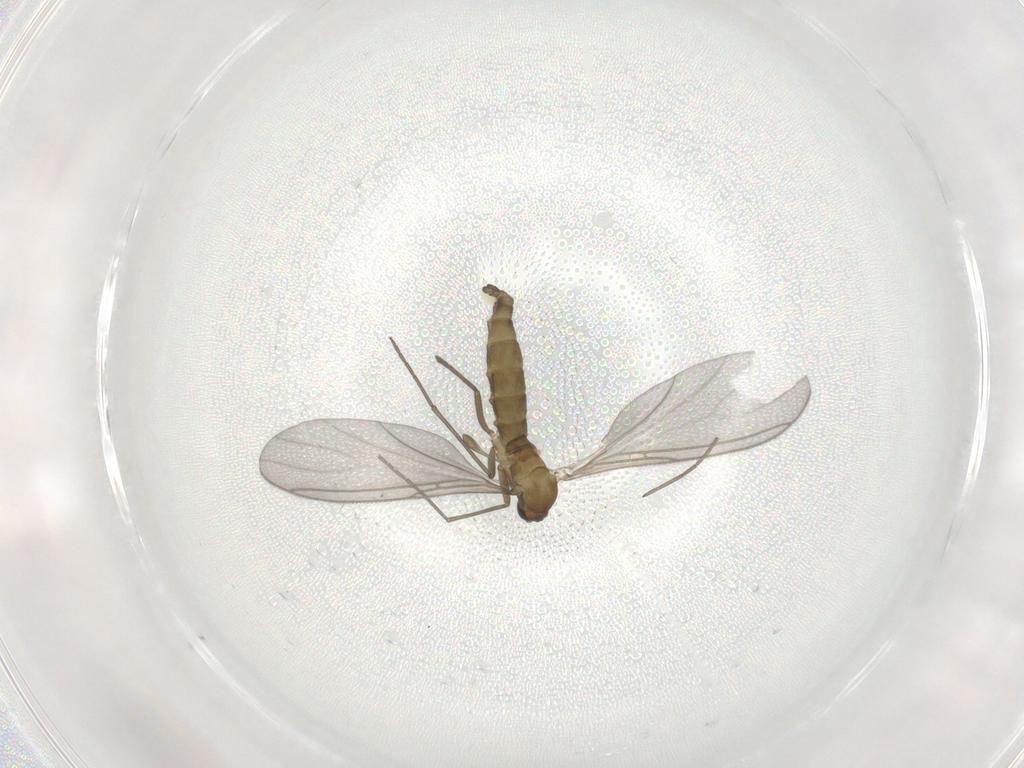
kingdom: Animalia
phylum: Arthropoda
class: Insecta
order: Diptera
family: Sciaridae
